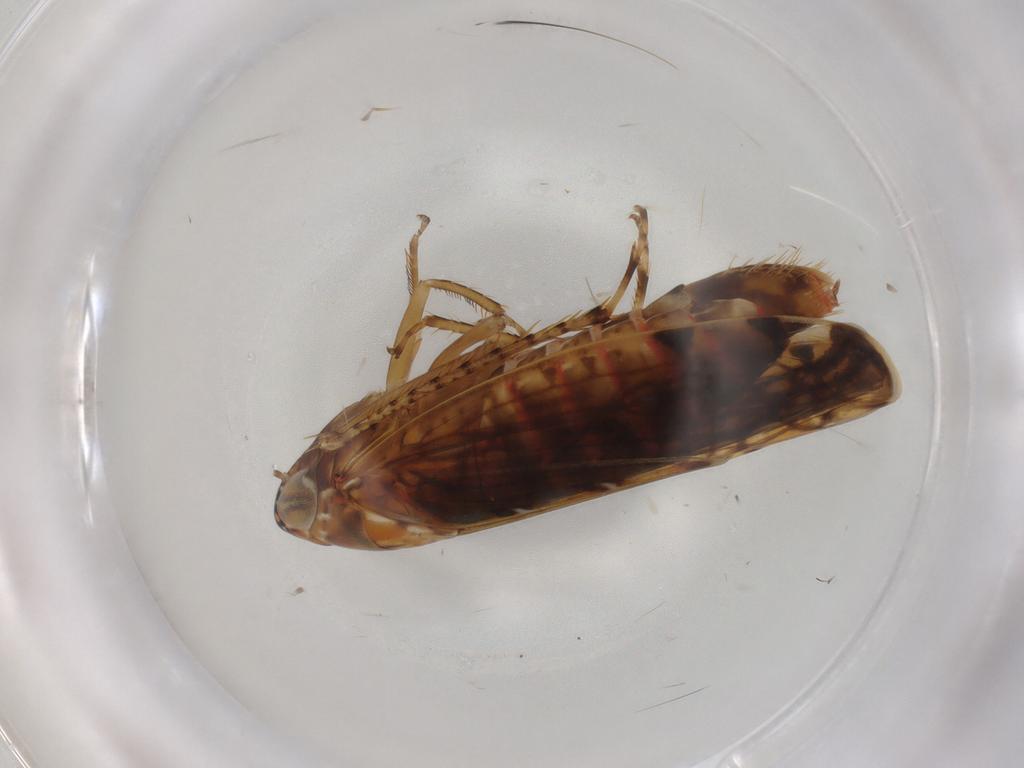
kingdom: Animalia
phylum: Arthropoda
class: Insecta
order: Hemiptera
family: Cicadellidae
